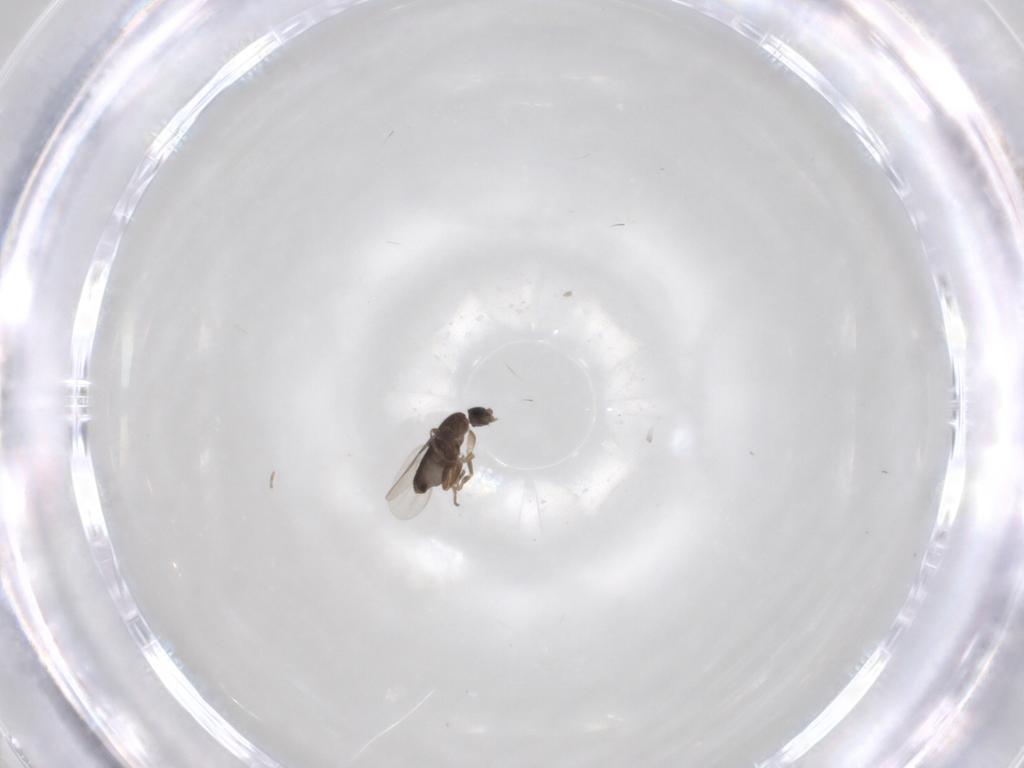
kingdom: Animalia
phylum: Arthropoda
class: Insecta
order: Diptera
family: Phoridae
